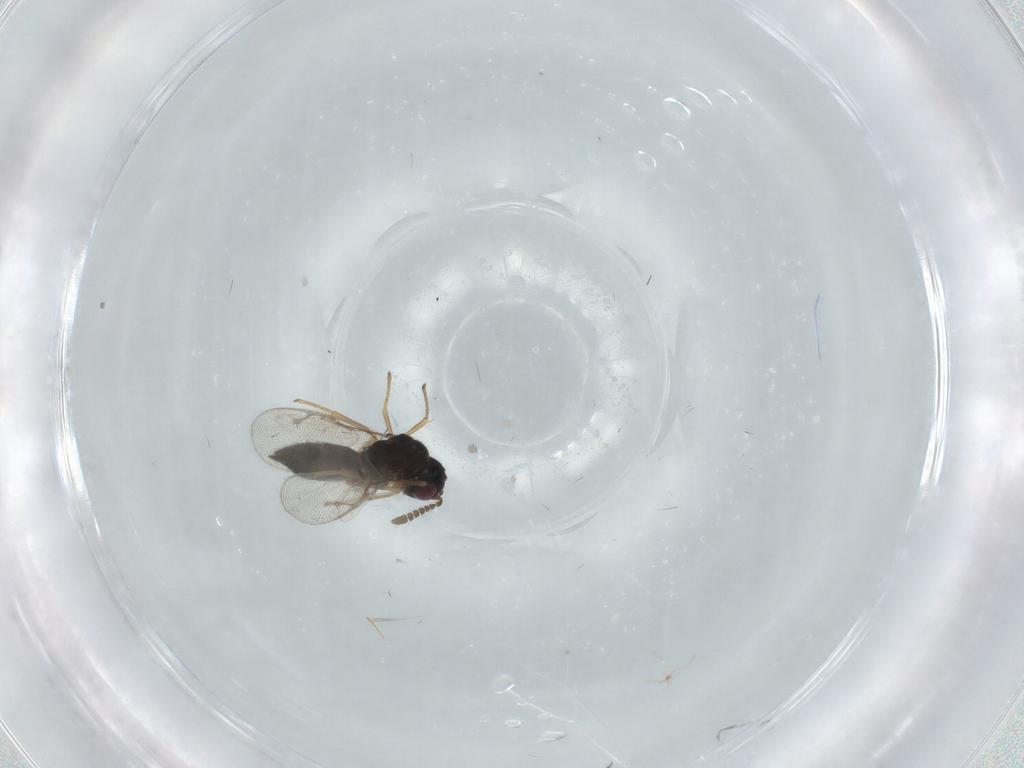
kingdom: Animalia
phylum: Arthropoda
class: Insecta
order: Hymenoptera
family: Pirenidae
